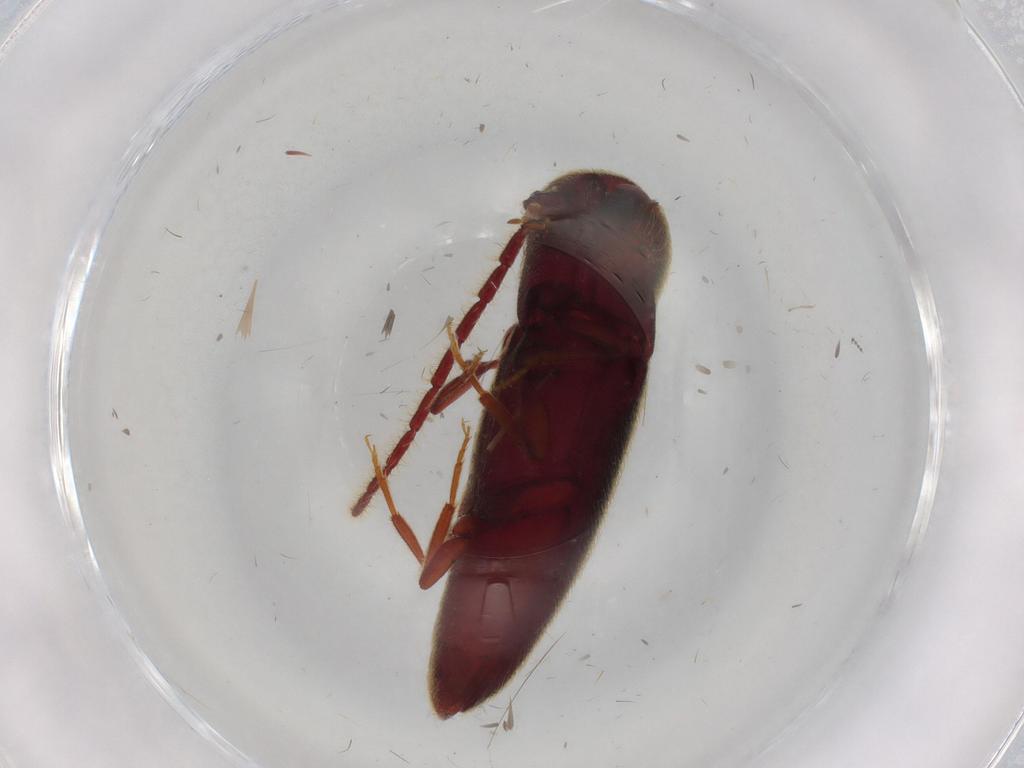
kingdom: Animalia
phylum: Arthropoda
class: Insecta
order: Coleoptera
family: Eucnemidae
